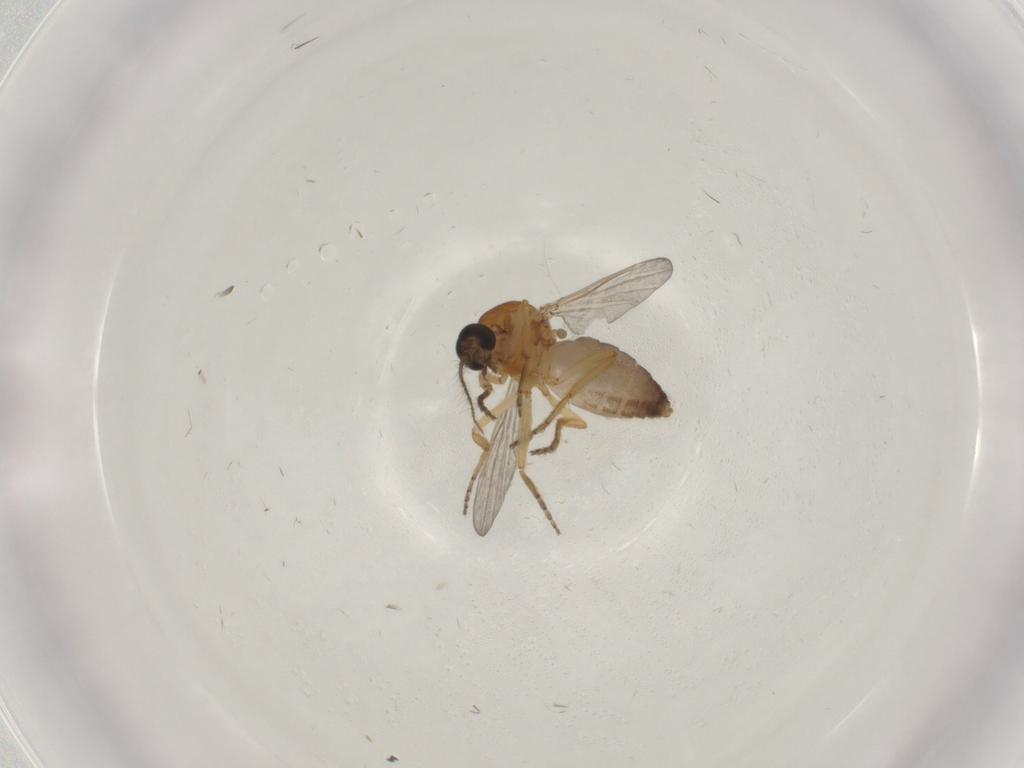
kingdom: Animalia
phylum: Arthropoda
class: Insecta
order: Diptera
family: Ceratopogonidae
